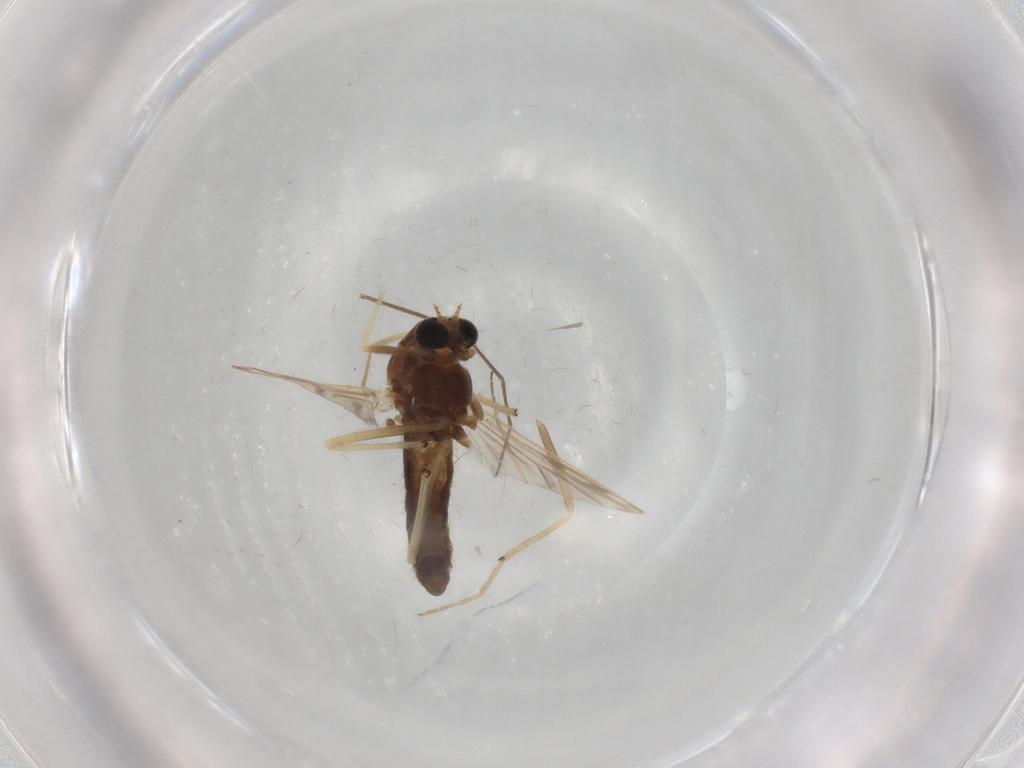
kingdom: Animalia
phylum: Arthropoda
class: Insecta
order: Diptera
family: Chironomidae
